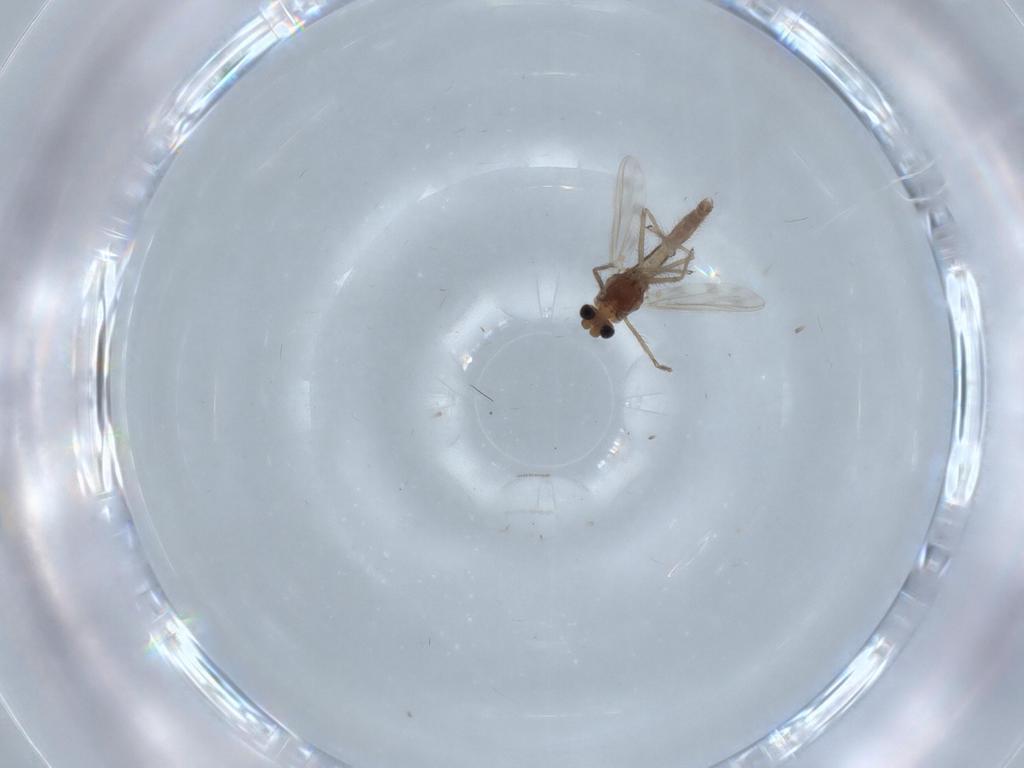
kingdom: Animalia
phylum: Arthropoda
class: Insecta
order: Diptera
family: Chironomidae
